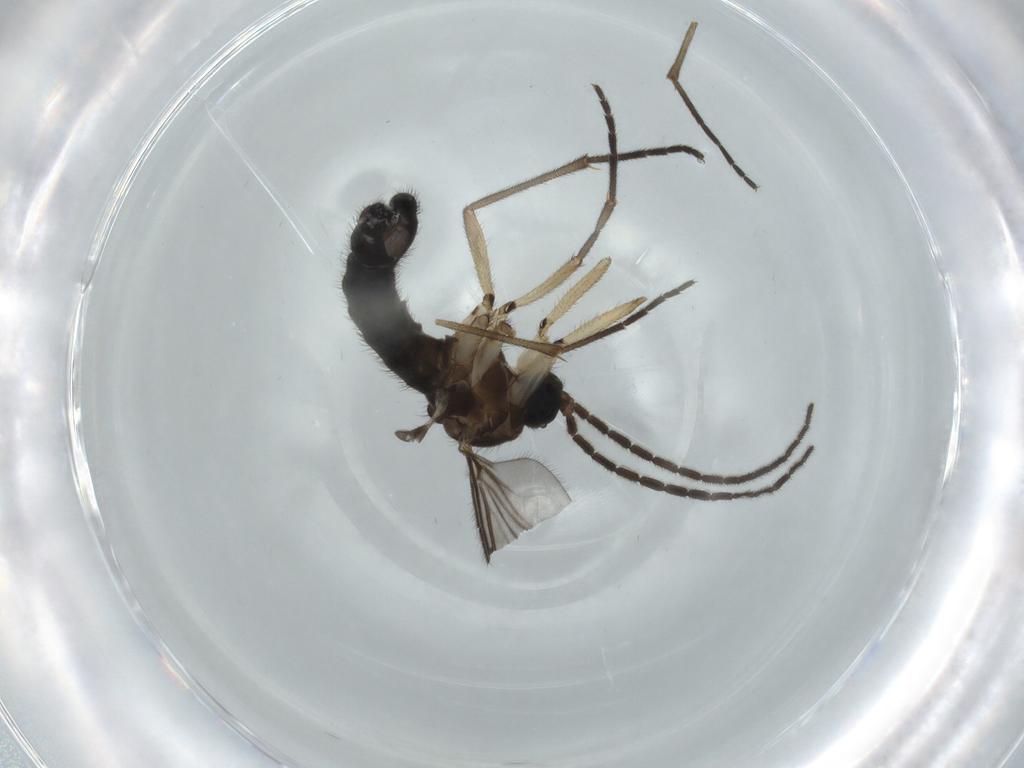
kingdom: Animalia
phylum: Arthropoda
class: Insecta
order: Diptera
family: Sciaridae
